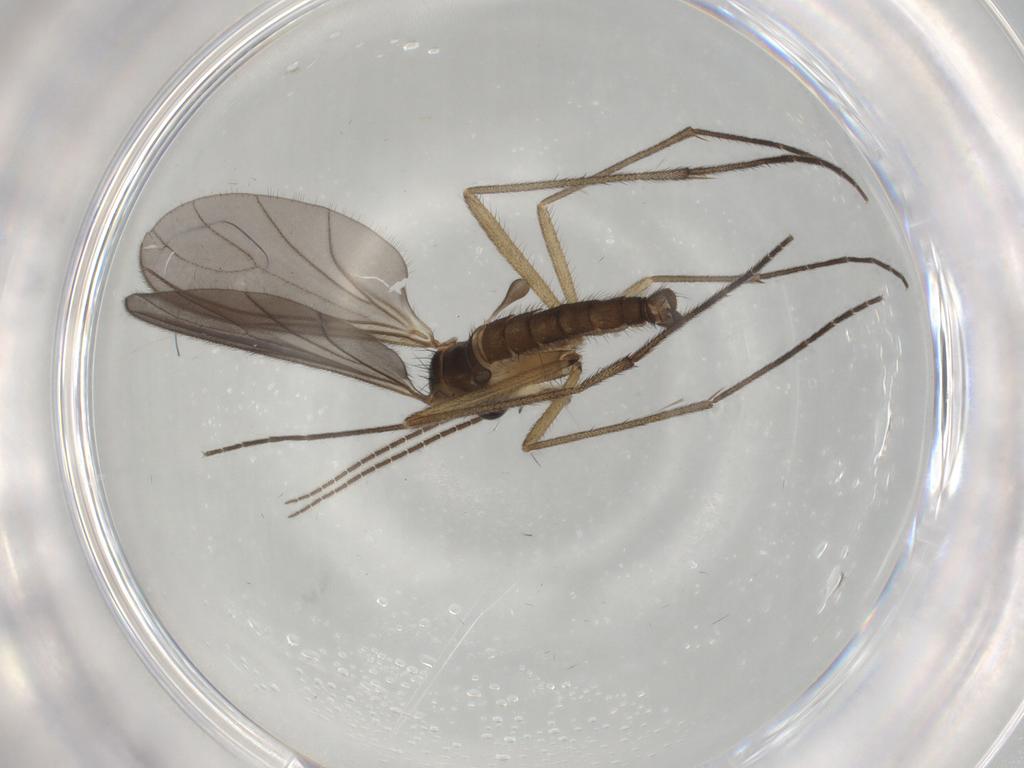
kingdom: Animalia
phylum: Arthropoda
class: Insecta
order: Diptera
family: Sciaridae
